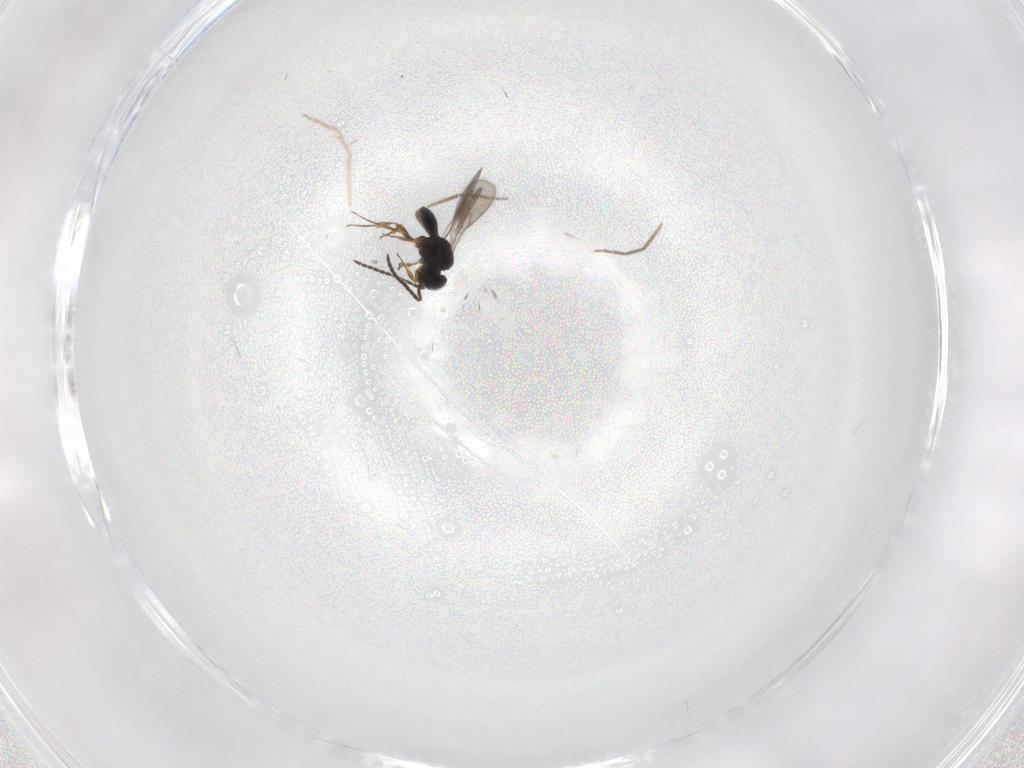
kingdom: Animalia
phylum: Arthropoda
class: Insecta
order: Hymenoptera
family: Scelionidae
